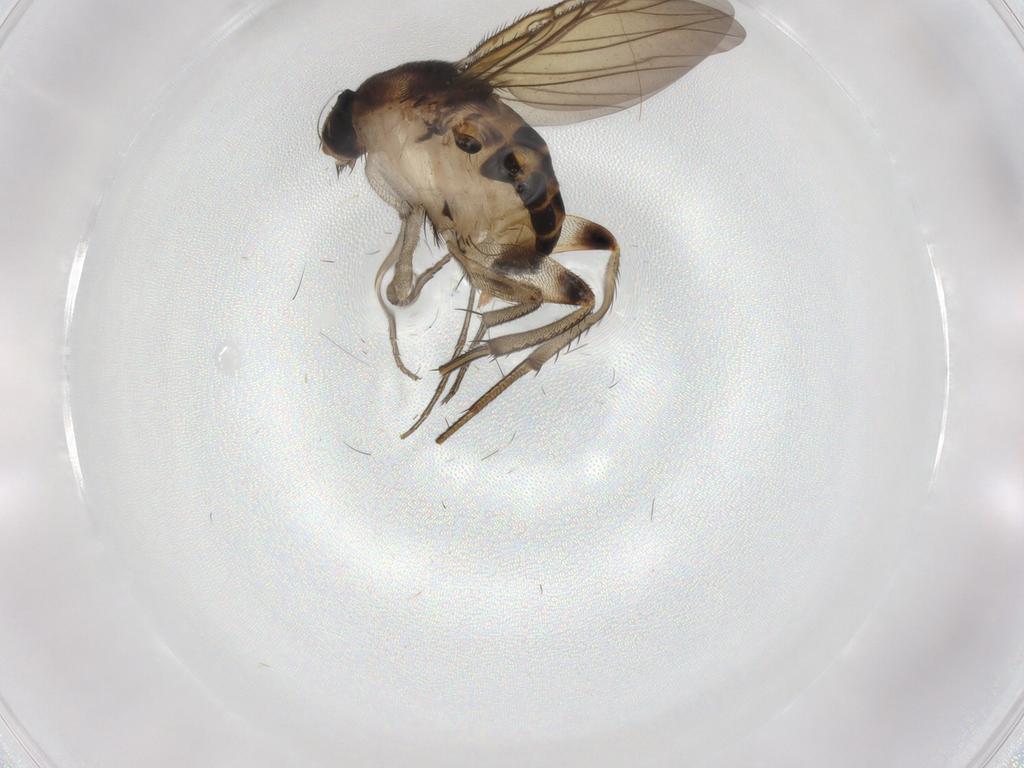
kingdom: Animalia
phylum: Arthropoda
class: Insecta
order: Diptera
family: Phoridae
